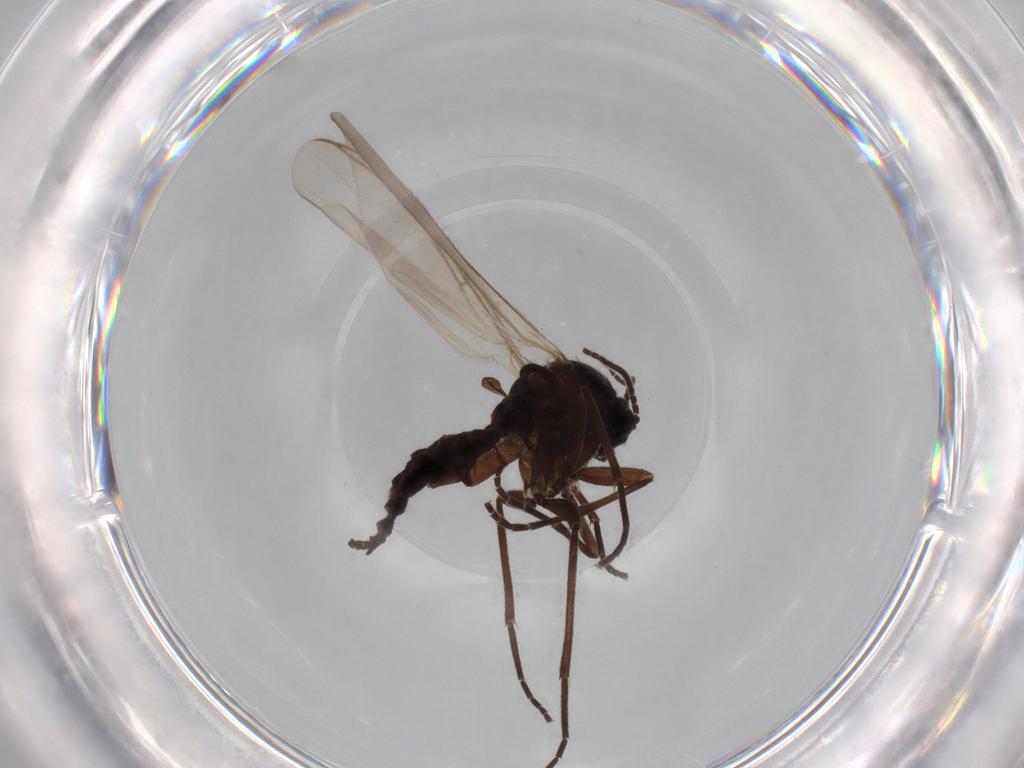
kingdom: Animalia
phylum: Arthropoda
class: Insecta
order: Diptera
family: Sciaridae
